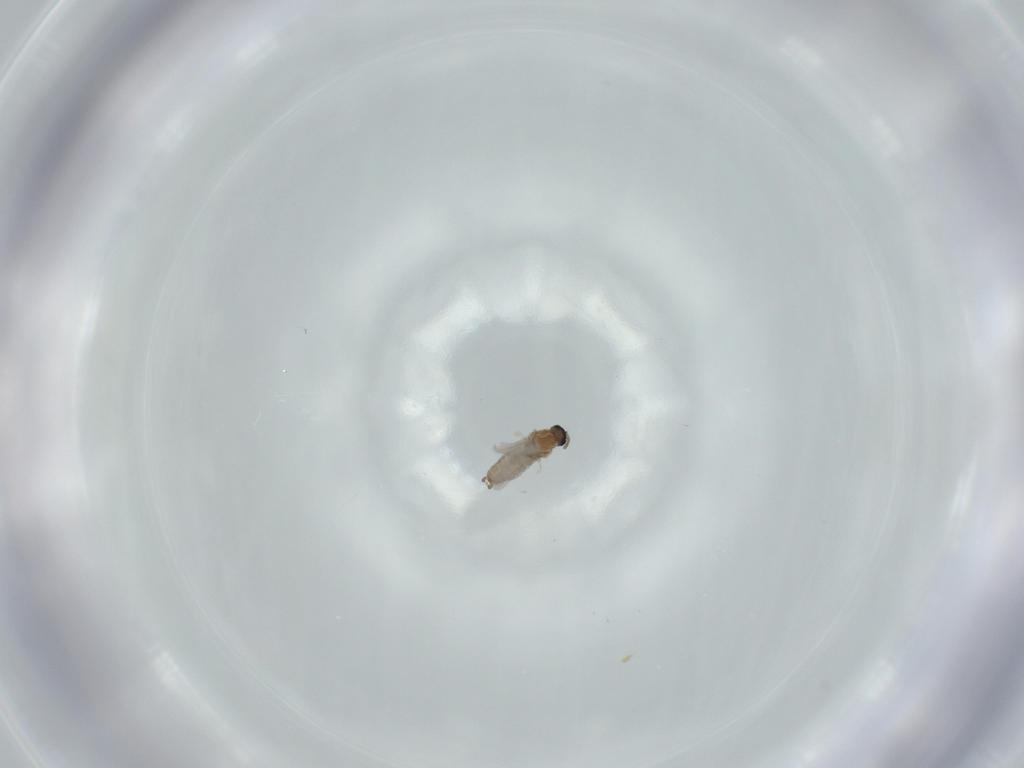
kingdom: Animalia
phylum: Arthropoda
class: Insecta
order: Diptera
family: Cecidomyiidae
